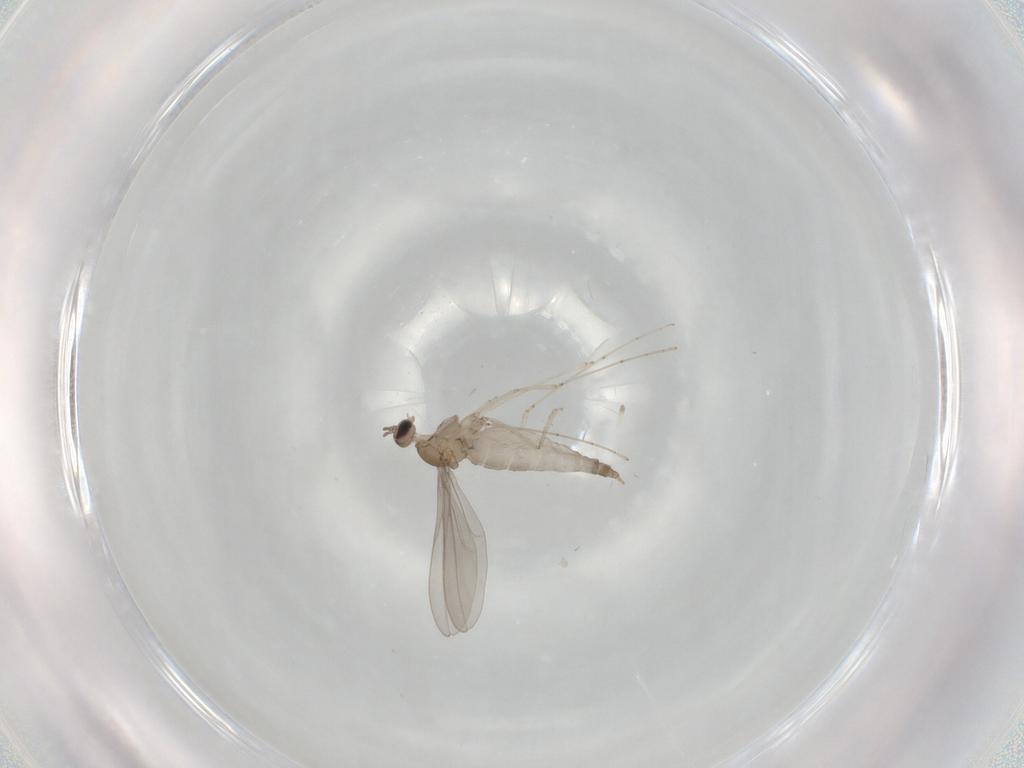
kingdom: Animalia
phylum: Arthropoda
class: Insecta
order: Diptera
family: Cecidomyiidae
